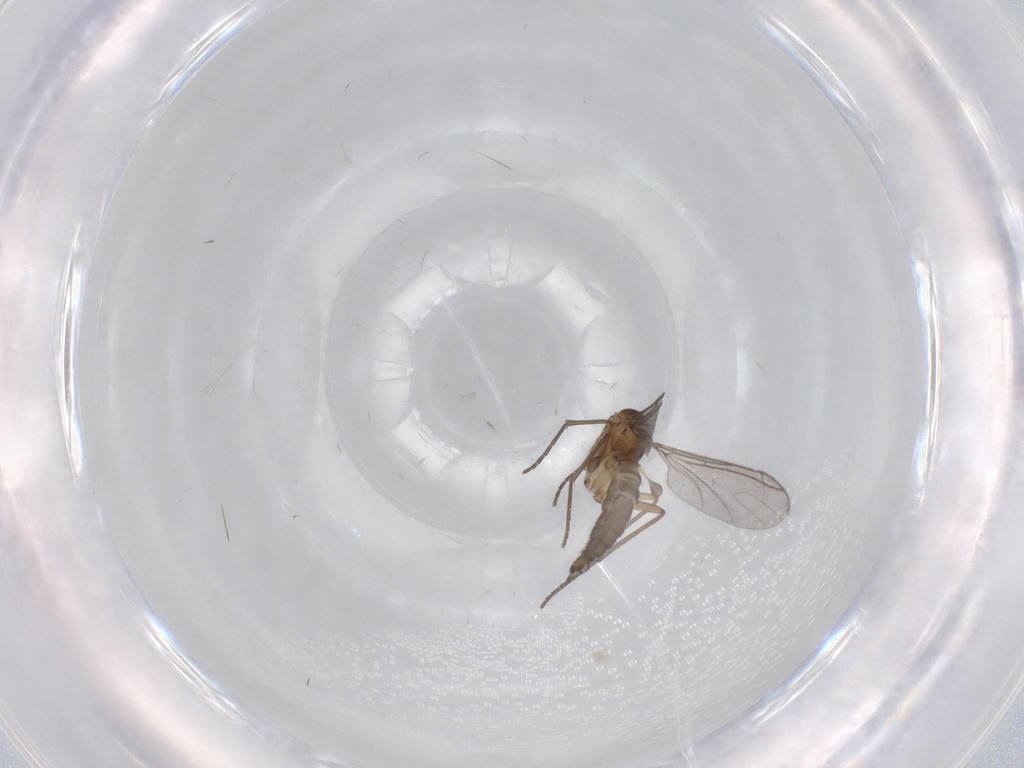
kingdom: Animalia
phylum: Arthropoda
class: Insecta
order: Diptera
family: Sciaridae
